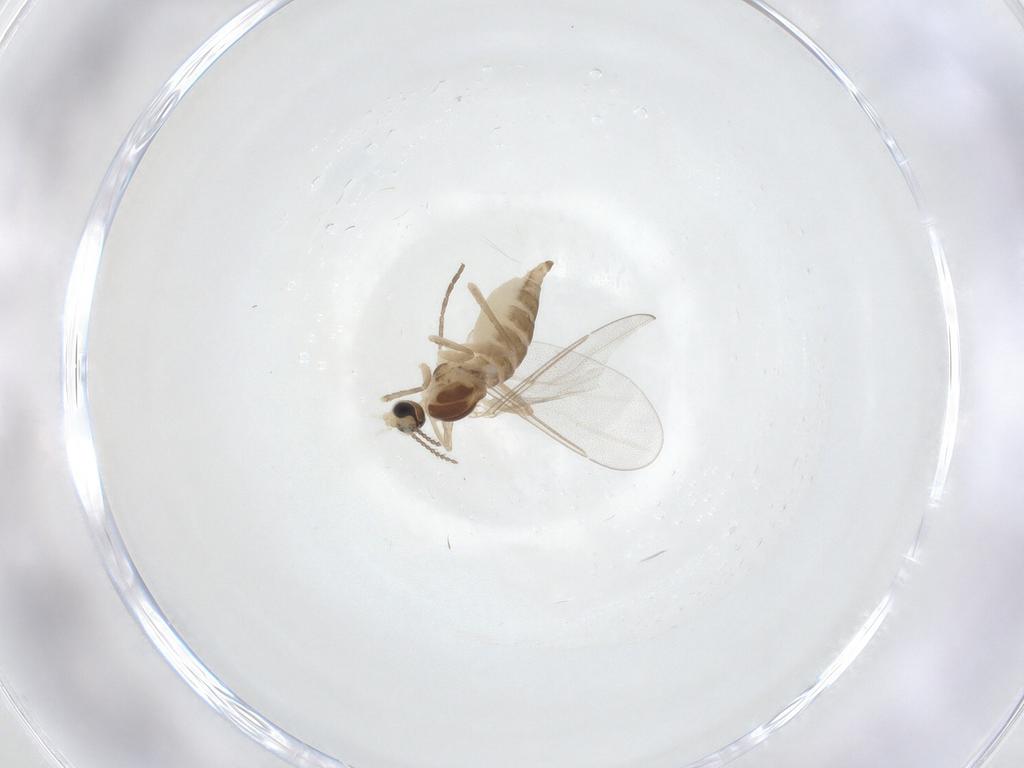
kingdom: Animalia
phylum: Arthropoda
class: Insecta
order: Diptera
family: Cecidomyiidae
